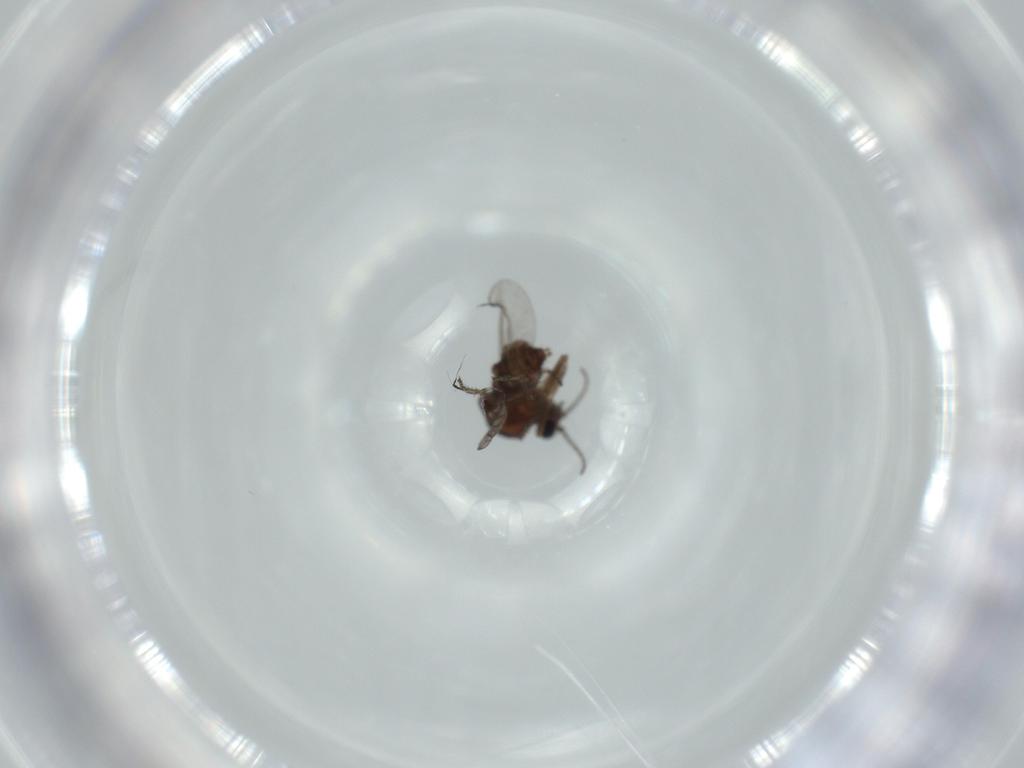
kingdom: Animalia
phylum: Arthropoda
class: Insecta
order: Diptera
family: Ceratopogonidae
